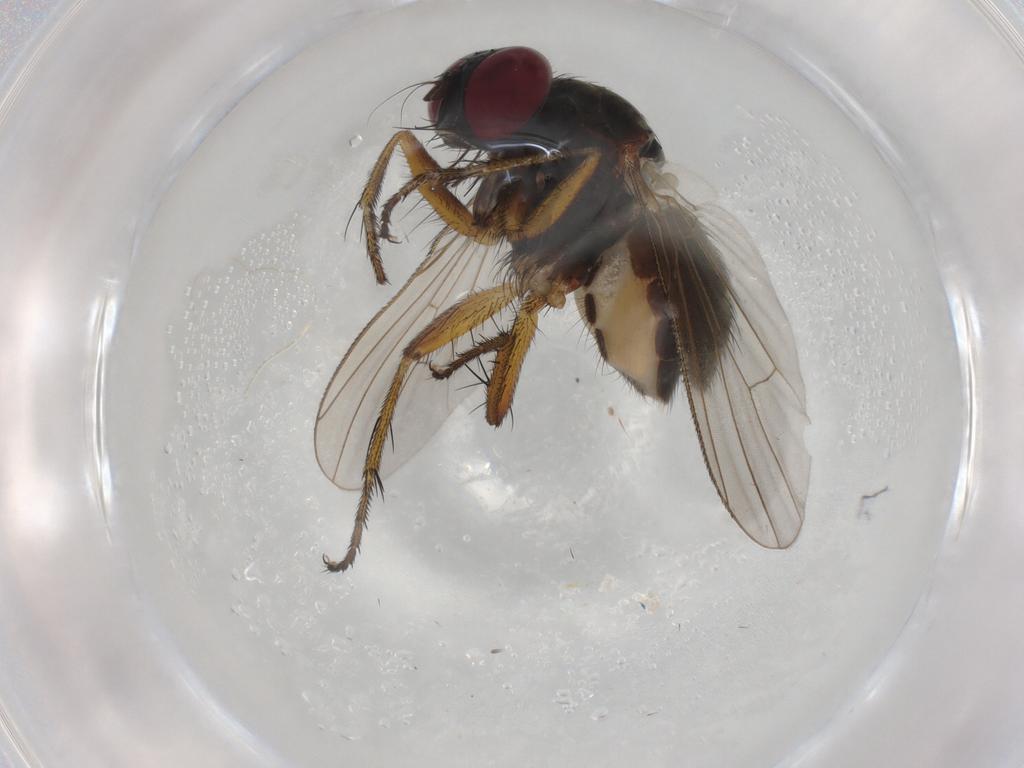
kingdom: Animalia
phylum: Arthropoda
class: Insecta
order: Diptera
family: Muscidae
